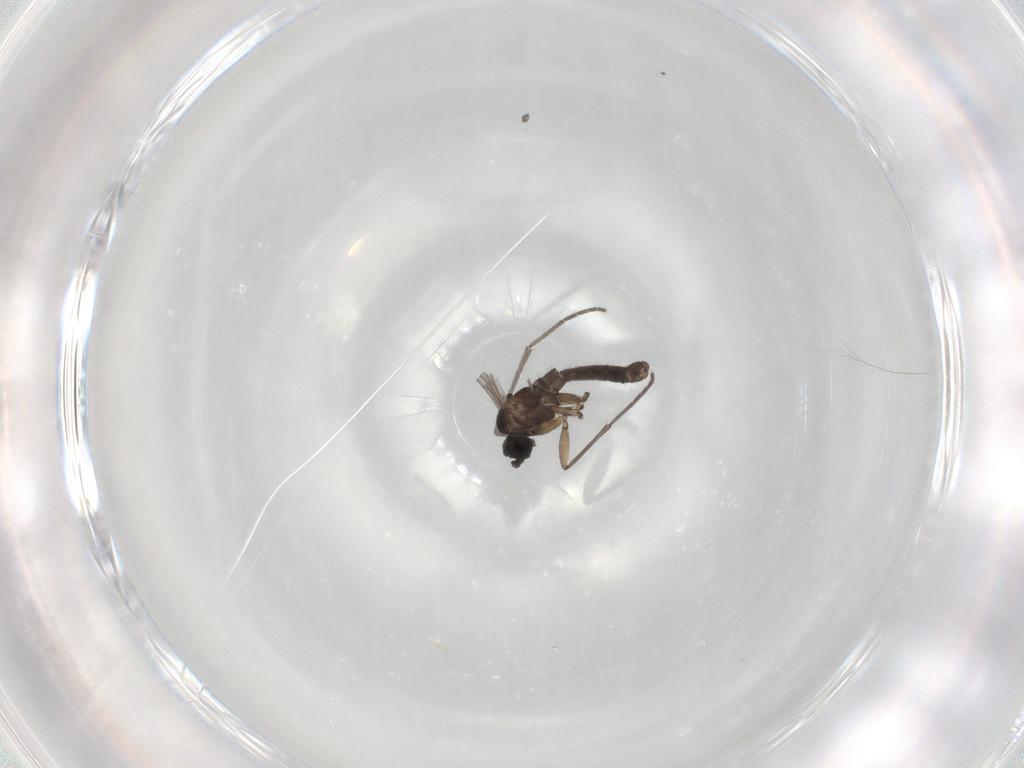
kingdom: Animalia
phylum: Arthropoda
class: Insecta
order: Diptera
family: Sciaridae
